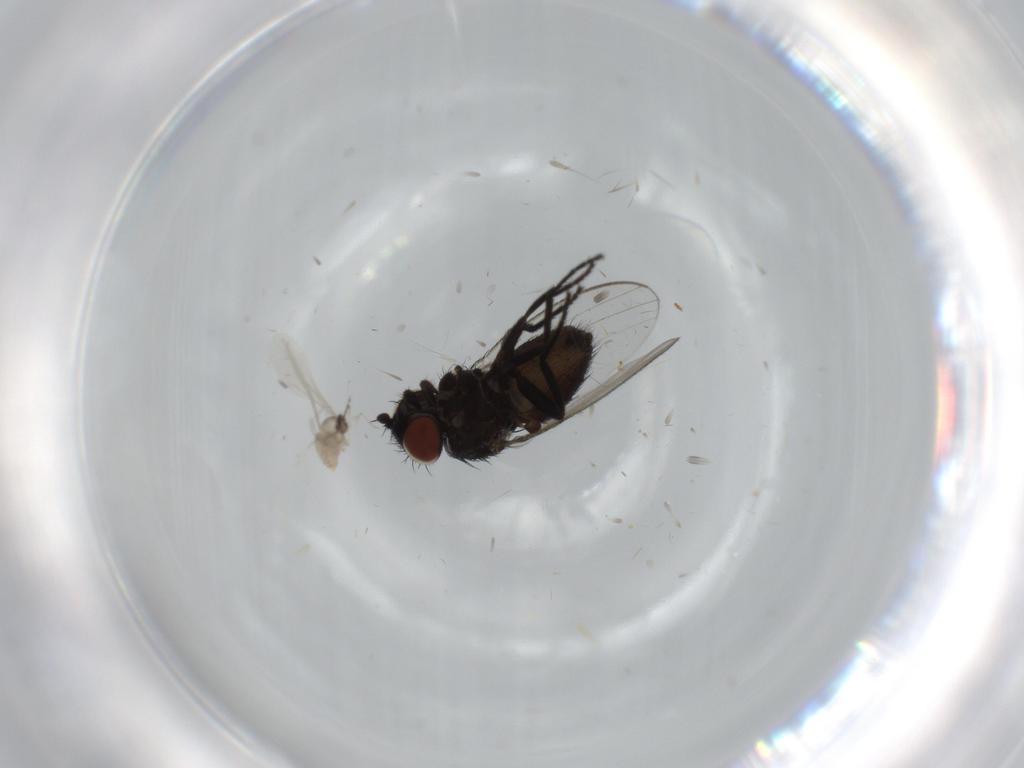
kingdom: Animalia
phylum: Arthropoda
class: Insecta
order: Diptera
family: Milichiidae
